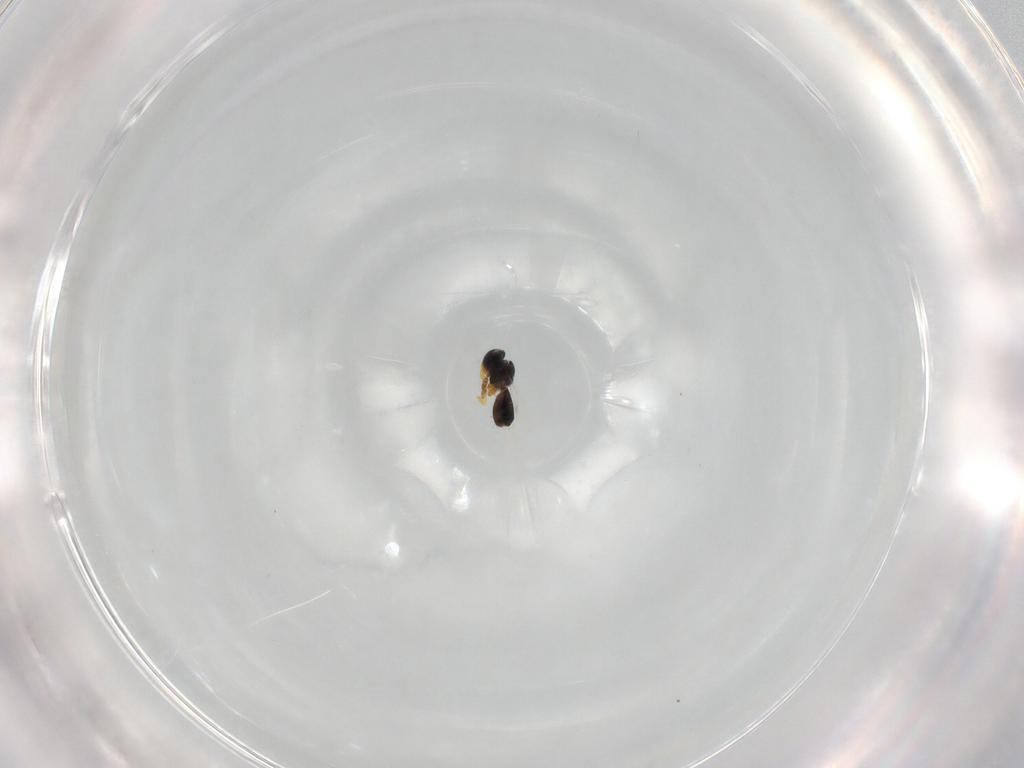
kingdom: Animalia
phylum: Arthropoda
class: Insecta
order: Hymenoptera
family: Platygastridae
